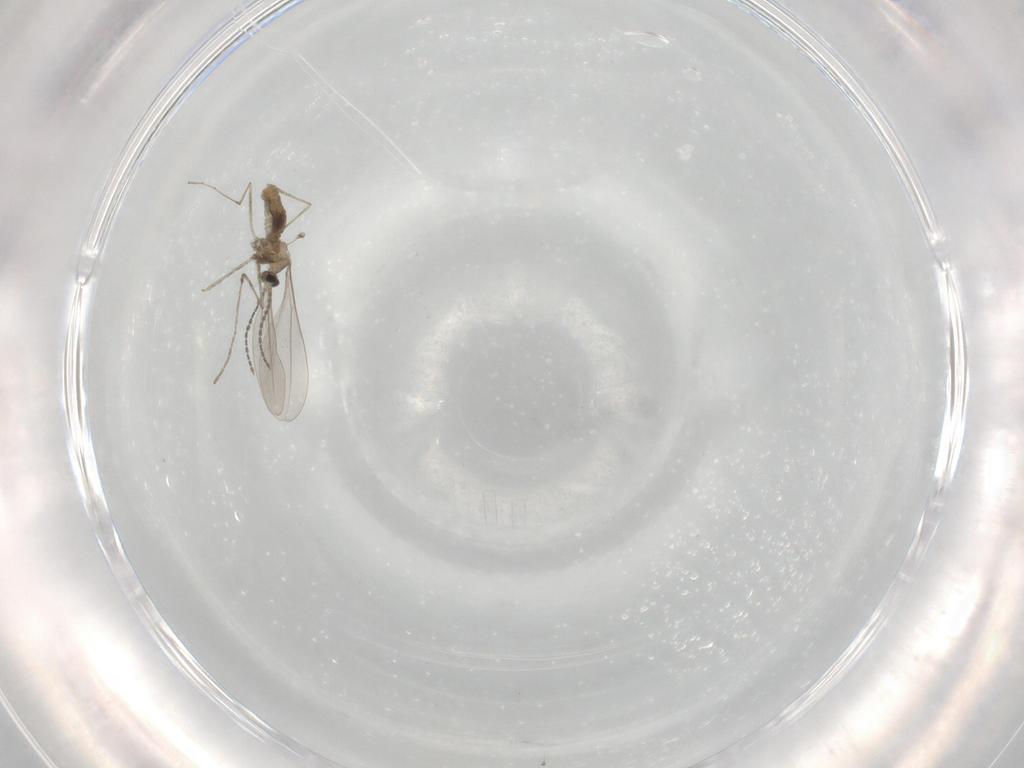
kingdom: Animalia
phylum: Arthropoda
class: Insecta
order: Diptera
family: Cecidomyiidae
